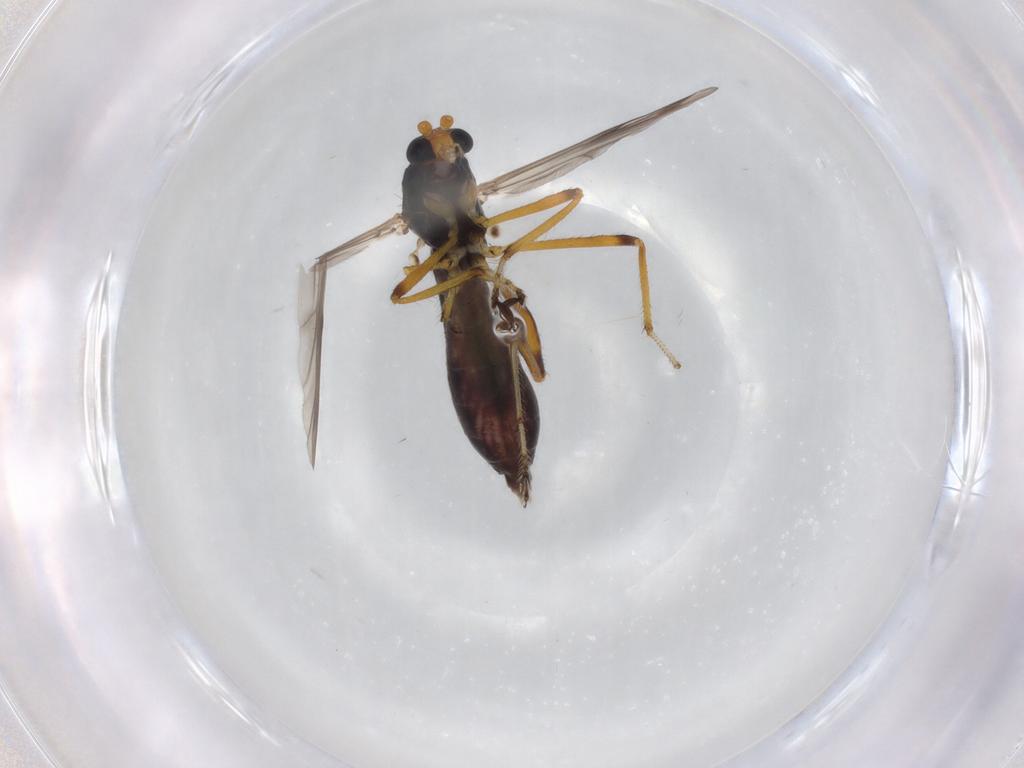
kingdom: Animalia
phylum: Arthropoda
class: Insecta
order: Diptera
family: Ceratopogonidae
